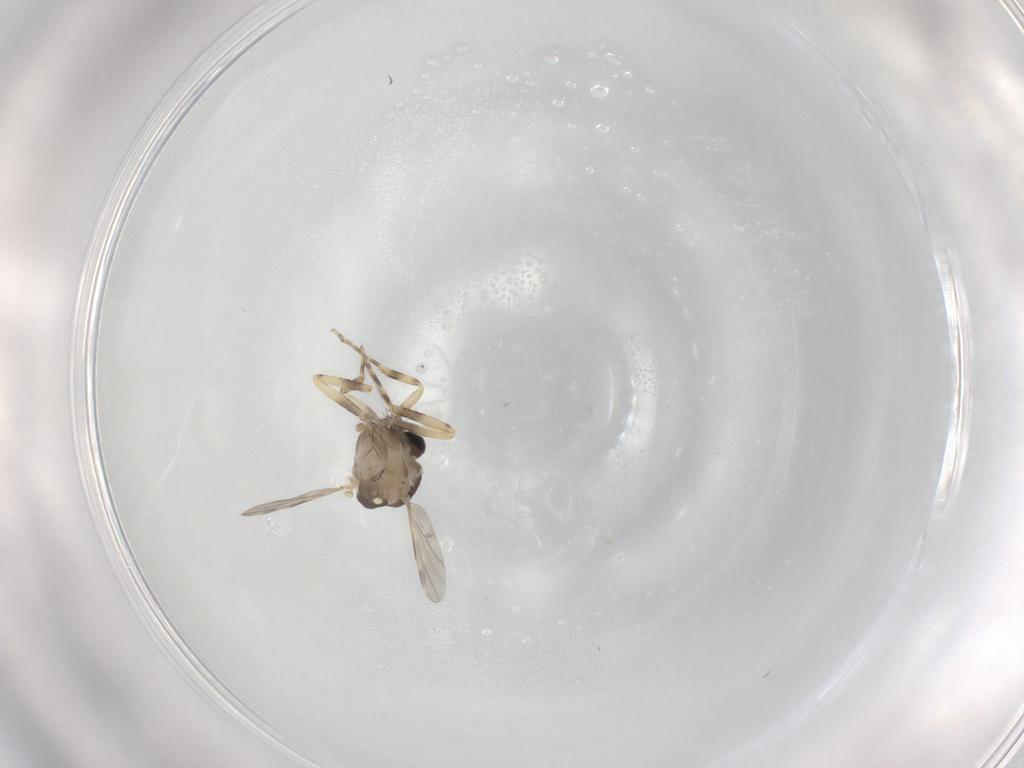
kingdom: Animalia
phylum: Arthropoda
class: Insecta
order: Diptera
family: Ceratopogonidae
